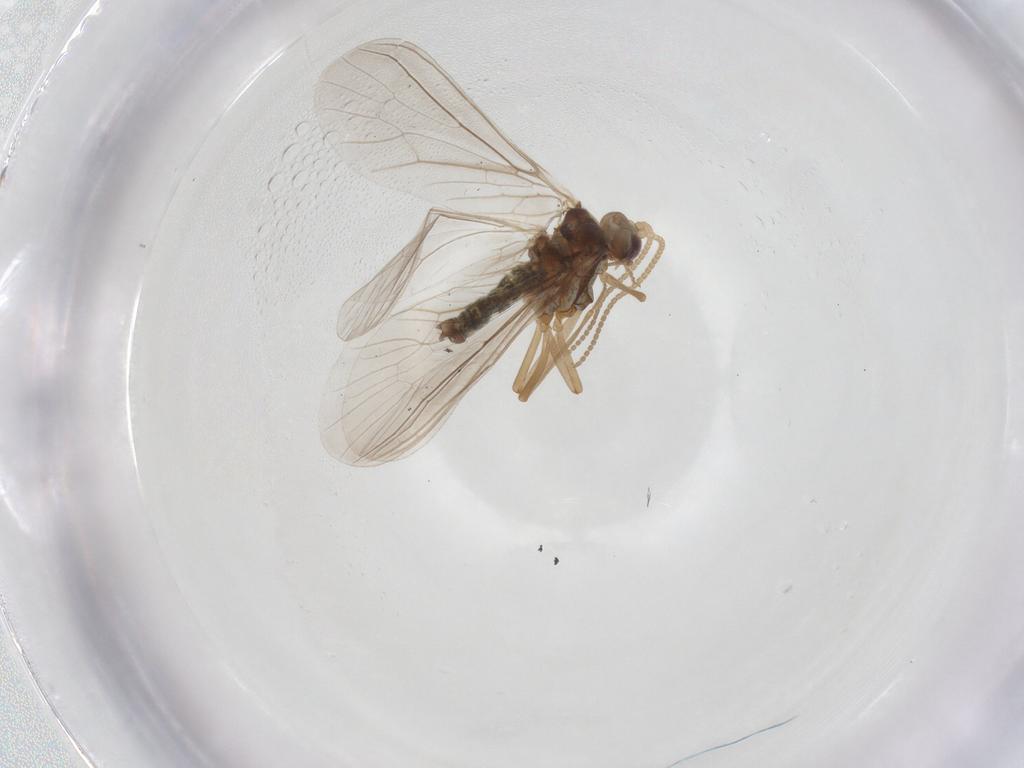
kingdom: Animalia
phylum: Arthropoda
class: Insecta
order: Neuroptera
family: Coniopterygidae
